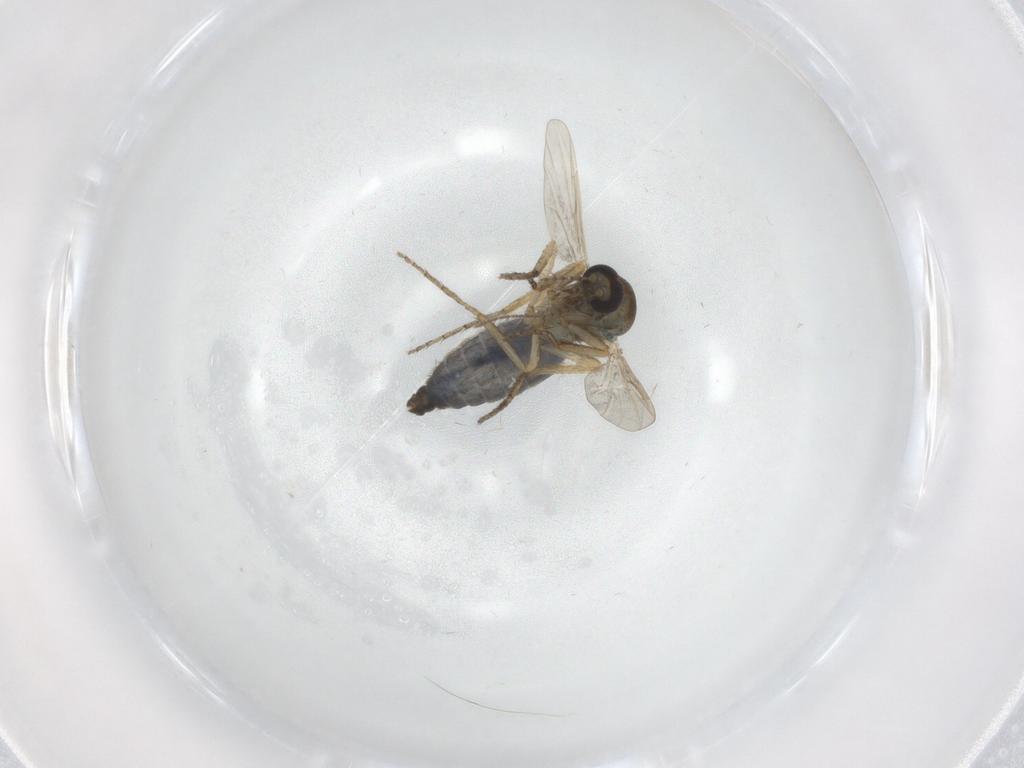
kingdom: Animalia
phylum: Arthropoda
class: Insecta
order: Diptera
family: Ceratopogonidae
